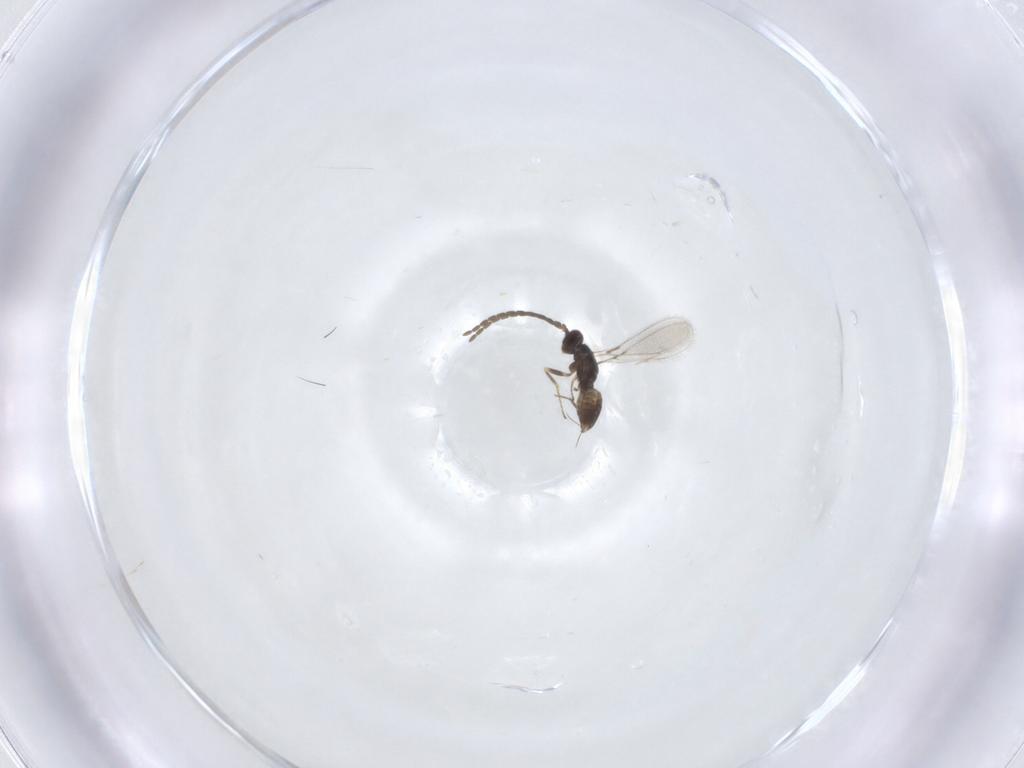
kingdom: Animalia
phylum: Arthropoda
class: Insecta
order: Hymenoptera
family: Mymaridae
